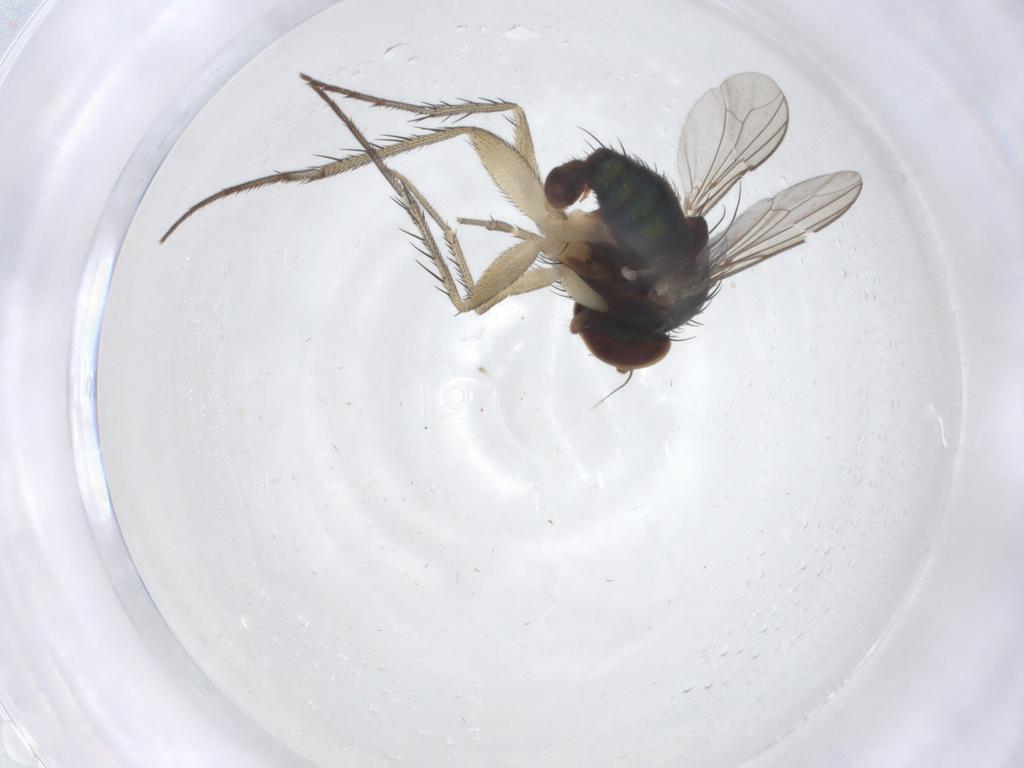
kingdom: Animalia
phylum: Arthropoda
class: Insecta
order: Diptera
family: Dolichopodidae
